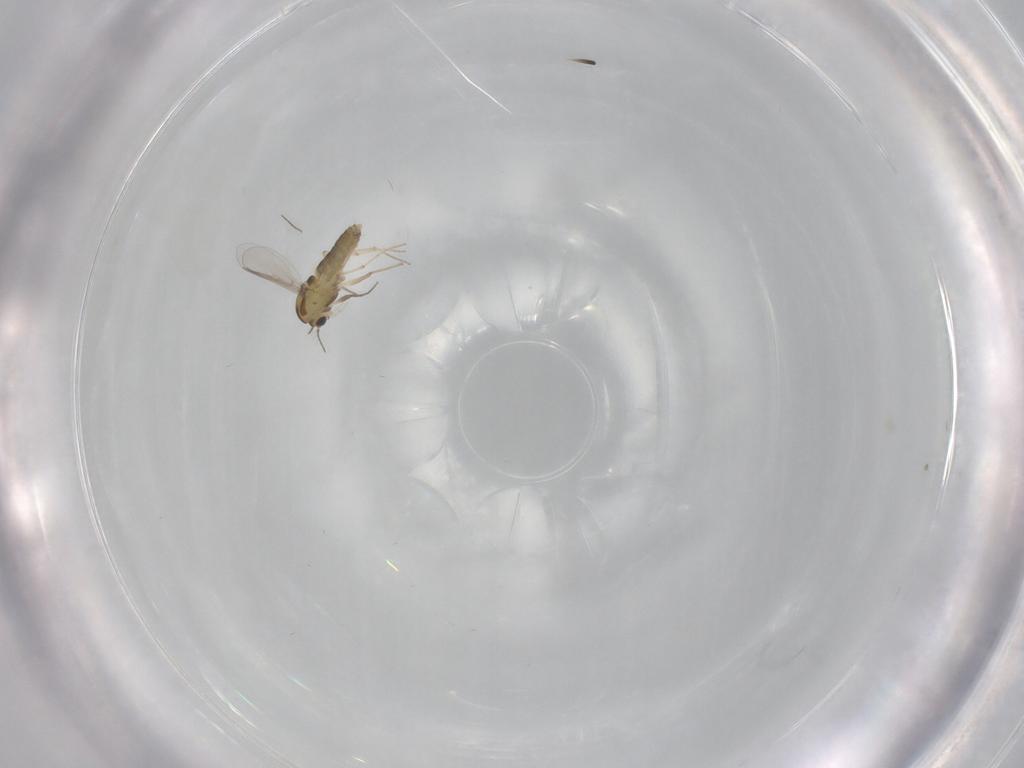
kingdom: Animalia
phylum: Arthropoda
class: Insecta
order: Diptera
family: Chironomidae
